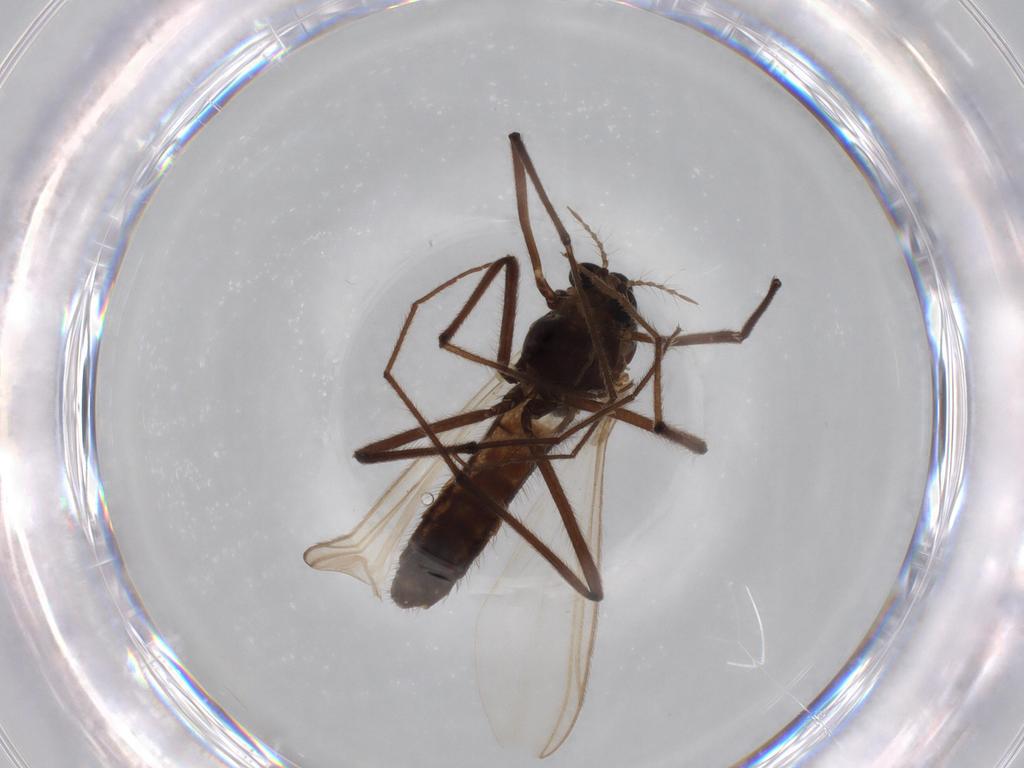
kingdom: Animalia
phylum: Arthropoda
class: Insecta
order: Diptera
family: Chironomidae
